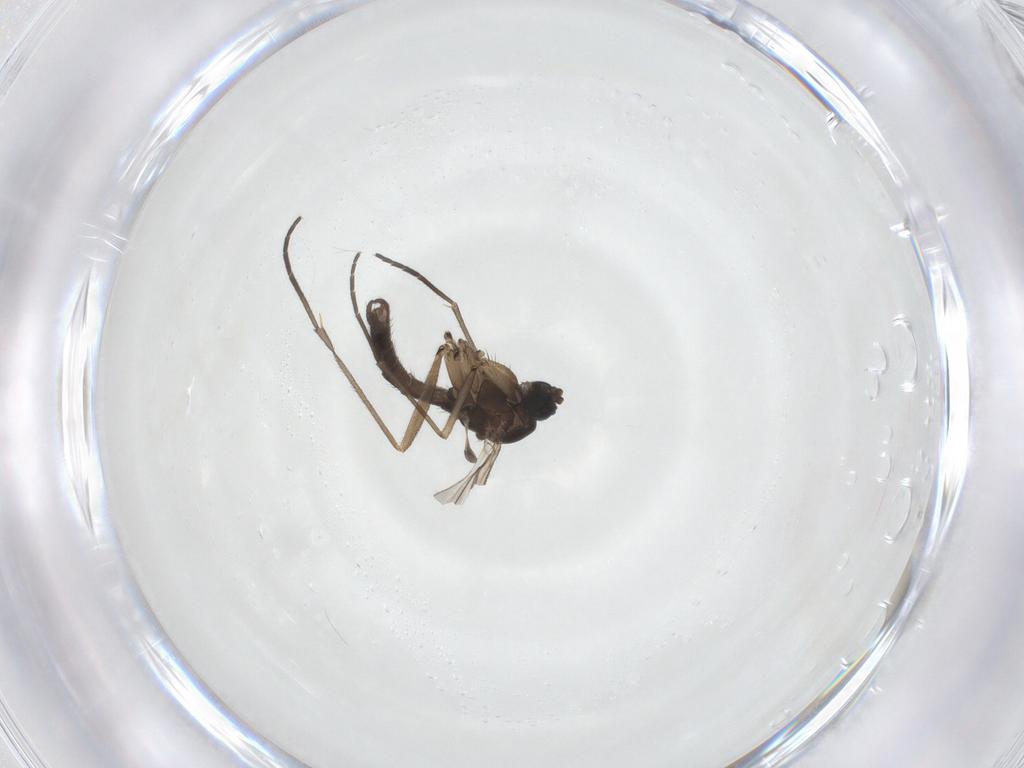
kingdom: Animalia
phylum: Arthropoda
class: Insecta
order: Diptera
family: Sciaridae
